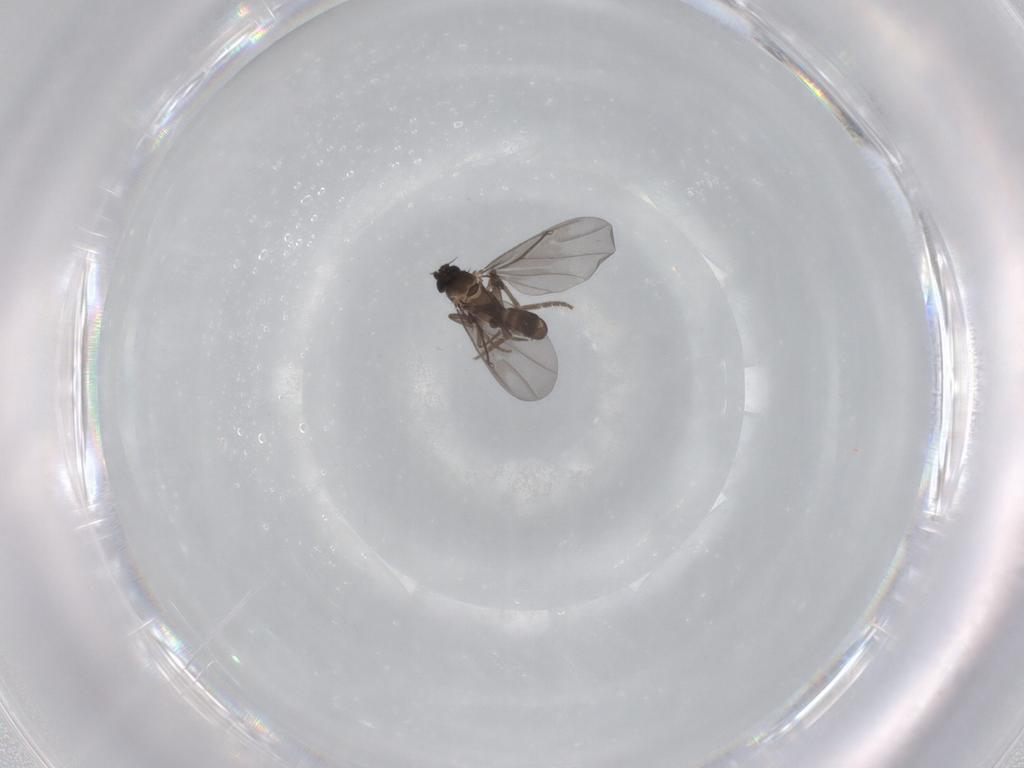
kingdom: Animalia
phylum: Arthropoda
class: Insecta
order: Diptera
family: Phoridae
